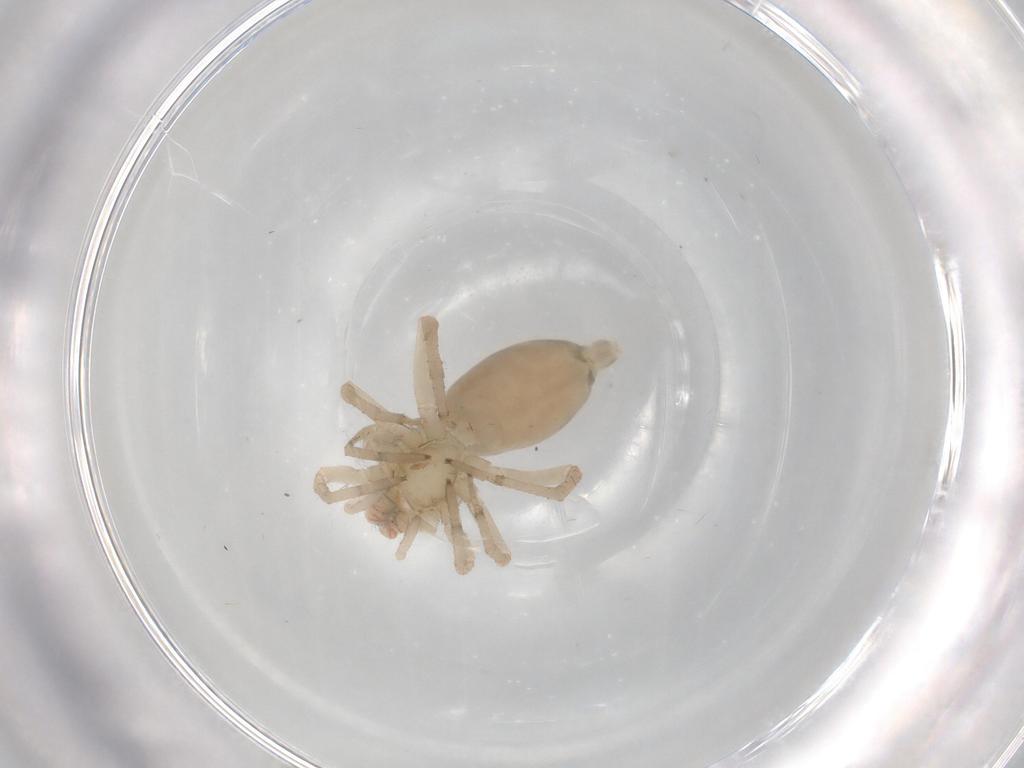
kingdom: Animalia
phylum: Arthropoda
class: Arachnida
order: Araneae
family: Anyphaenidae
